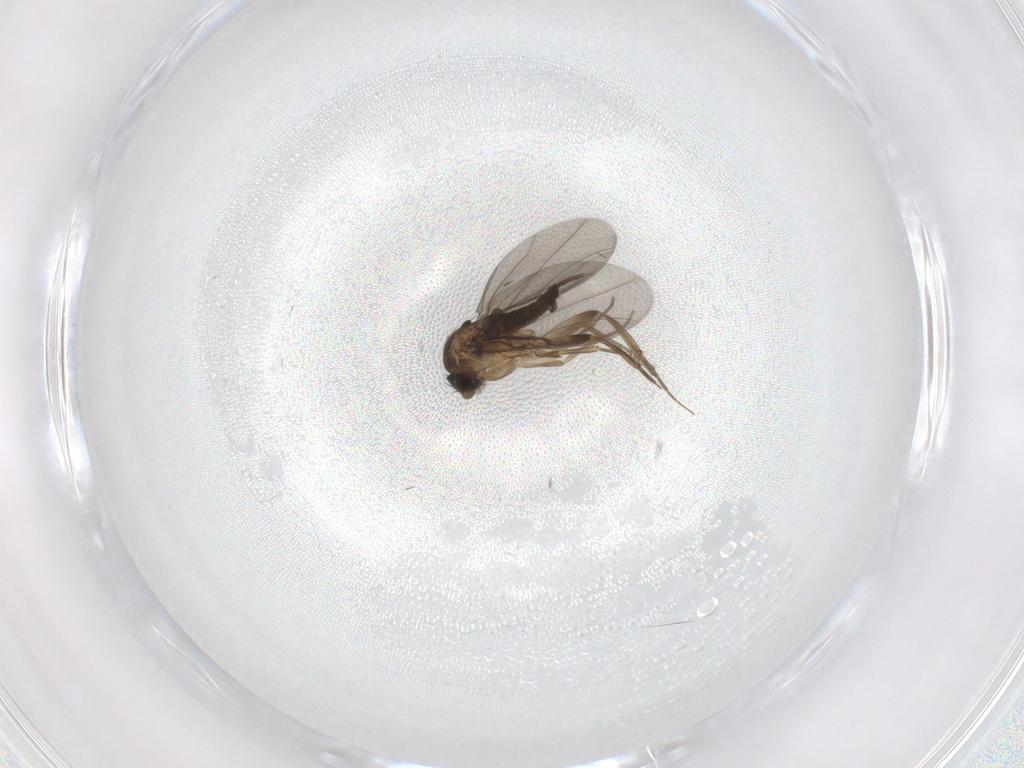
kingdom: Animalia
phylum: Arthropoda
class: Insecta
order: Diptera
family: Phoridae
